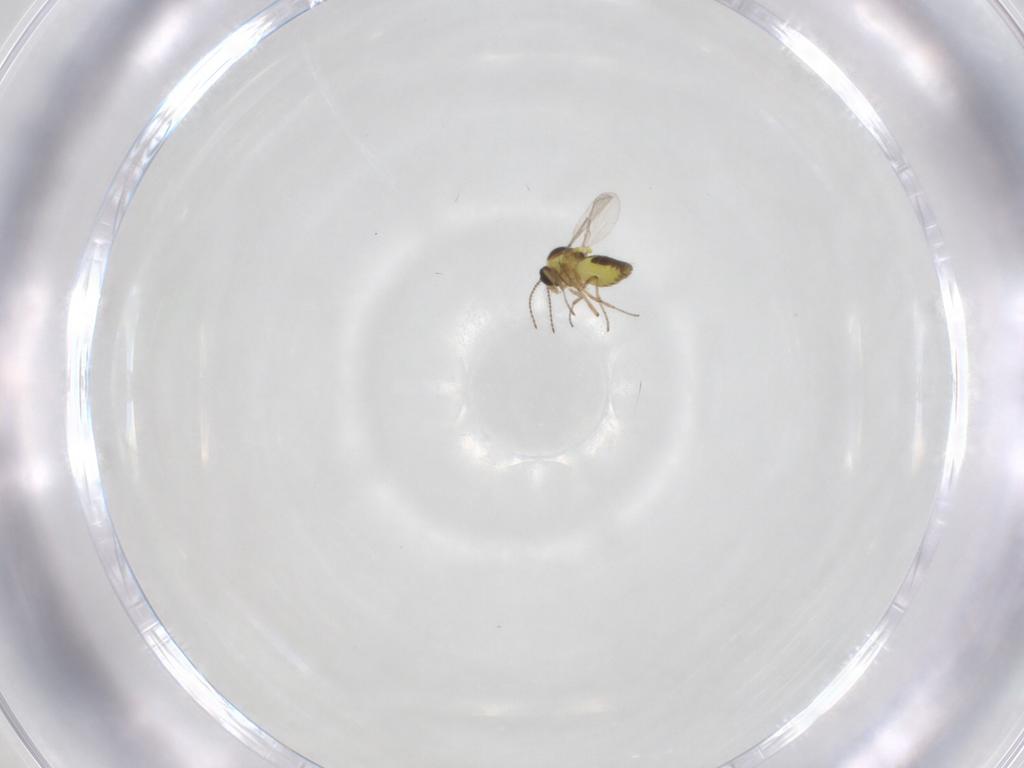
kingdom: Animalia
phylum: Arthropoda
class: Insecta
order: Diptera
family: Ceratopogonidae
